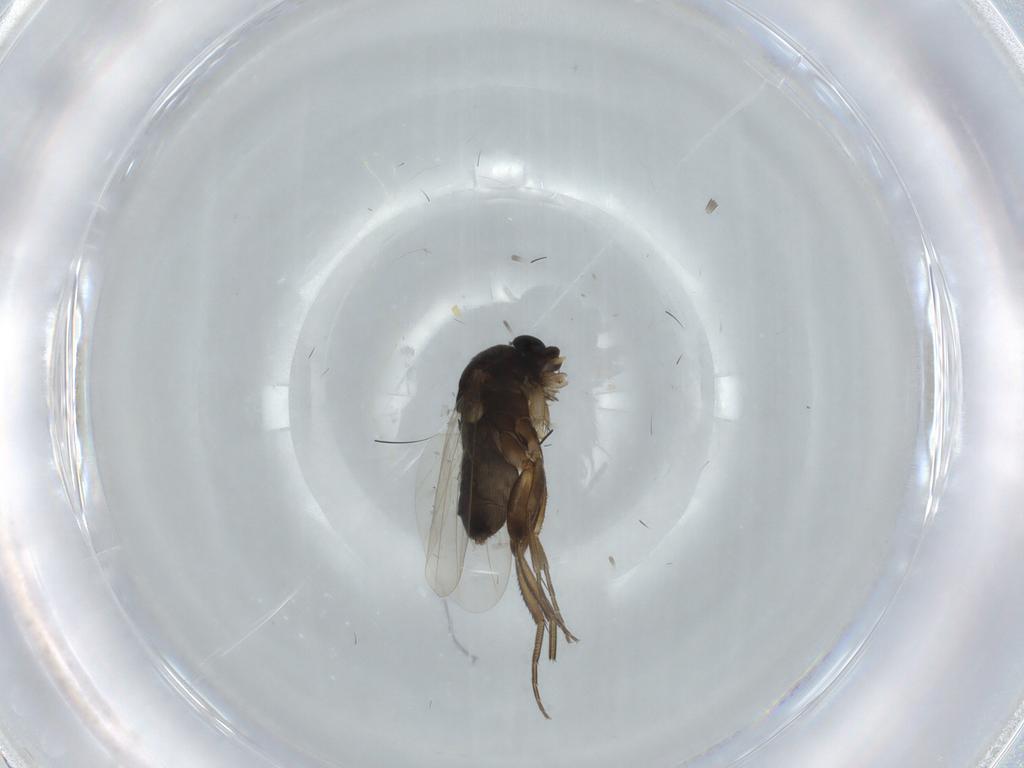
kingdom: Animalia
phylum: Arthropoda
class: Insecta
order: Diptera
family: Phoridae
